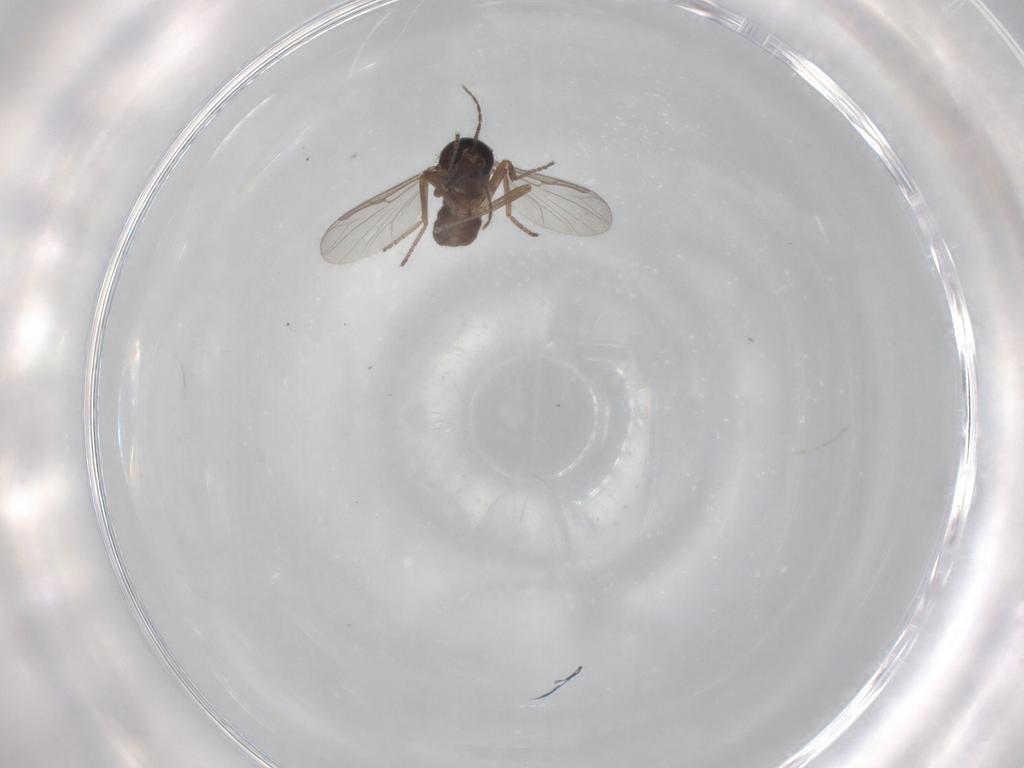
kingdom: Animalia
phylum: Arthropoda
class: Insecta
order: Diptera
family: Ceratopogonidae
